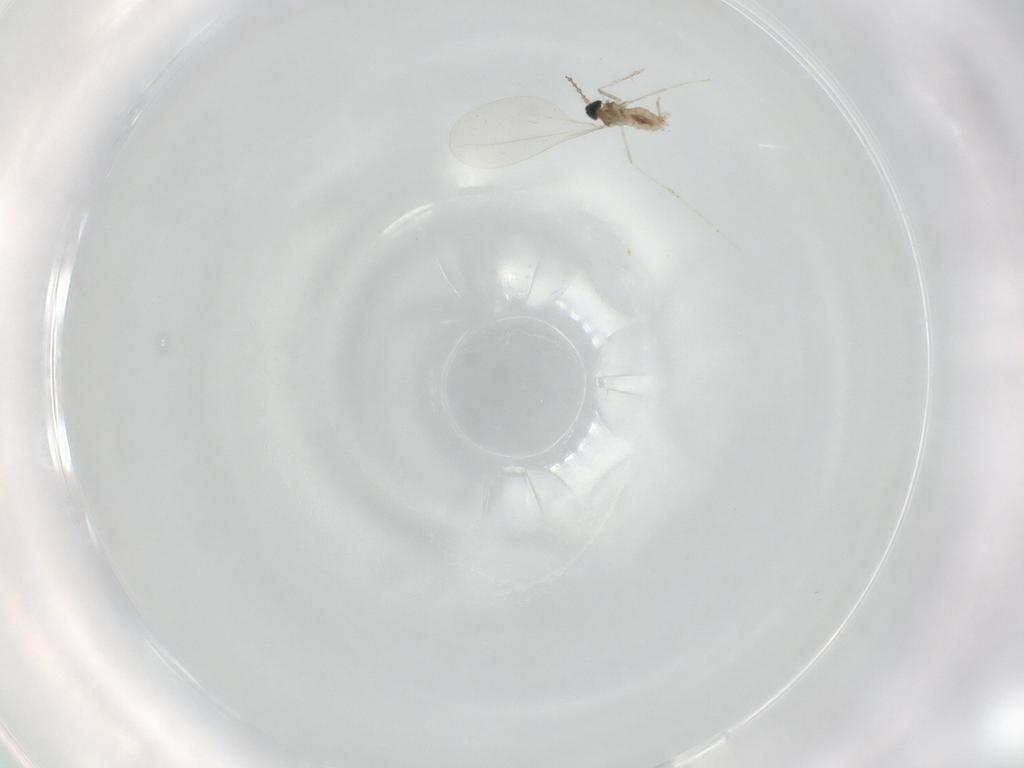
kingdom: Animalia
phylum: Arthropoda
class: Insecta
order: Diptera
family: Cecidomyiidae
